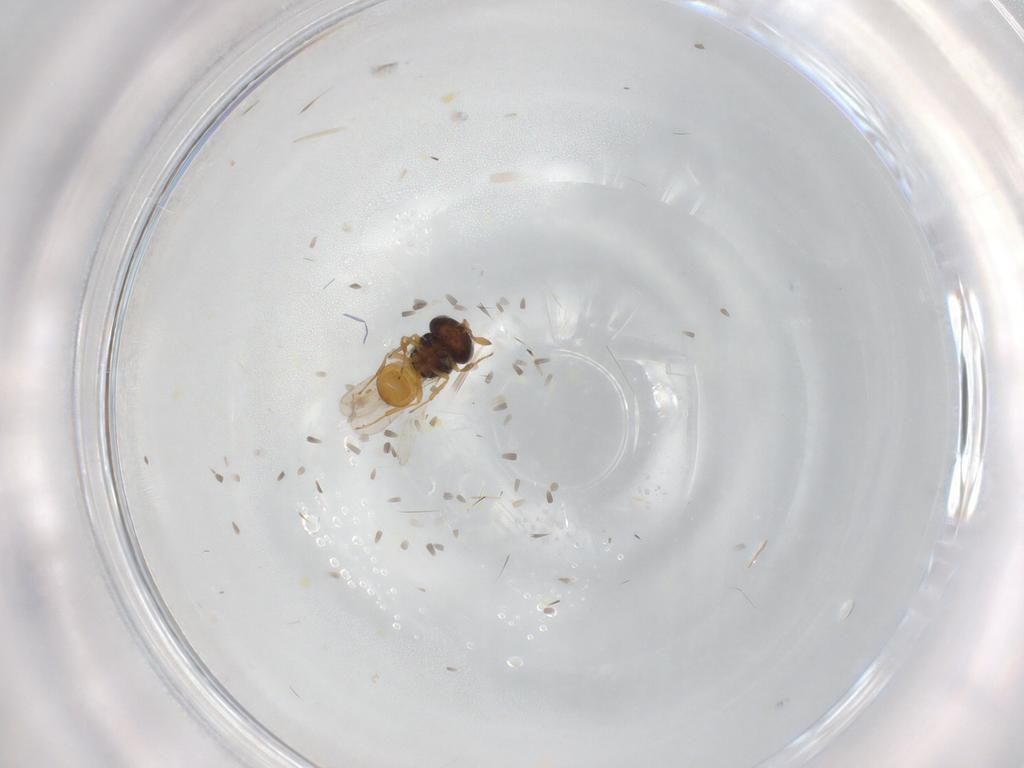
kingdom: Animalia
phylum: Arthropoda
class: Insecta
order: Hymenoptera
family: Scelionidae
